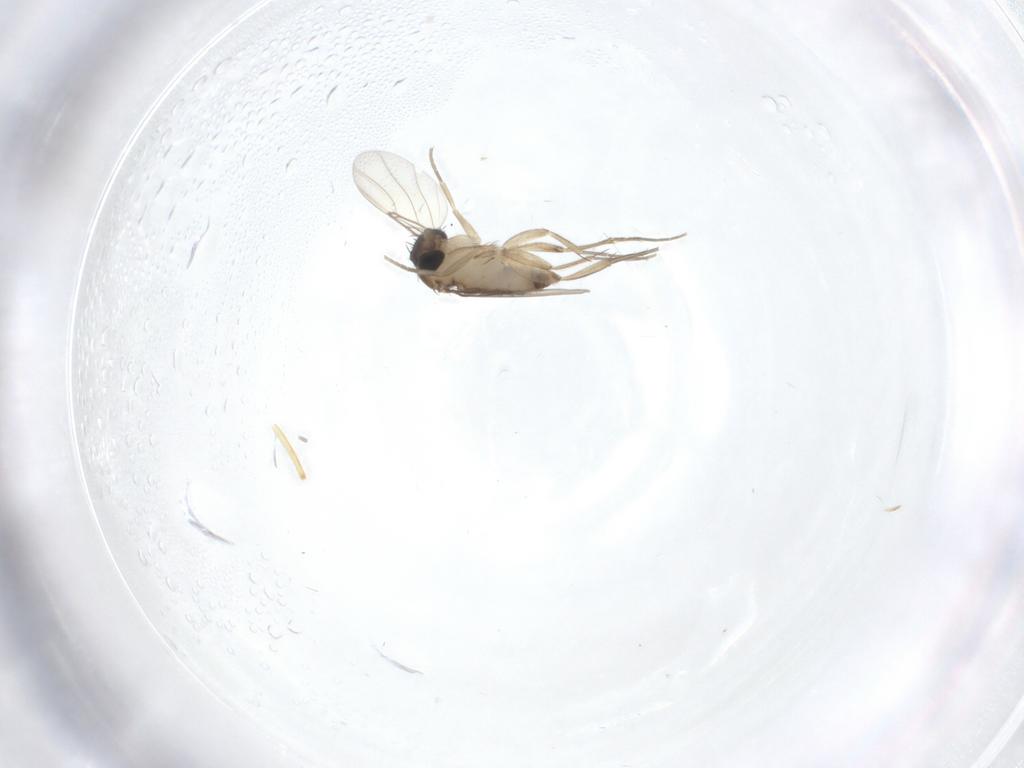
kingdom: Animalia
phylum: Arthropoda
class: Insecta
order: Diptera
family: Phoridae
